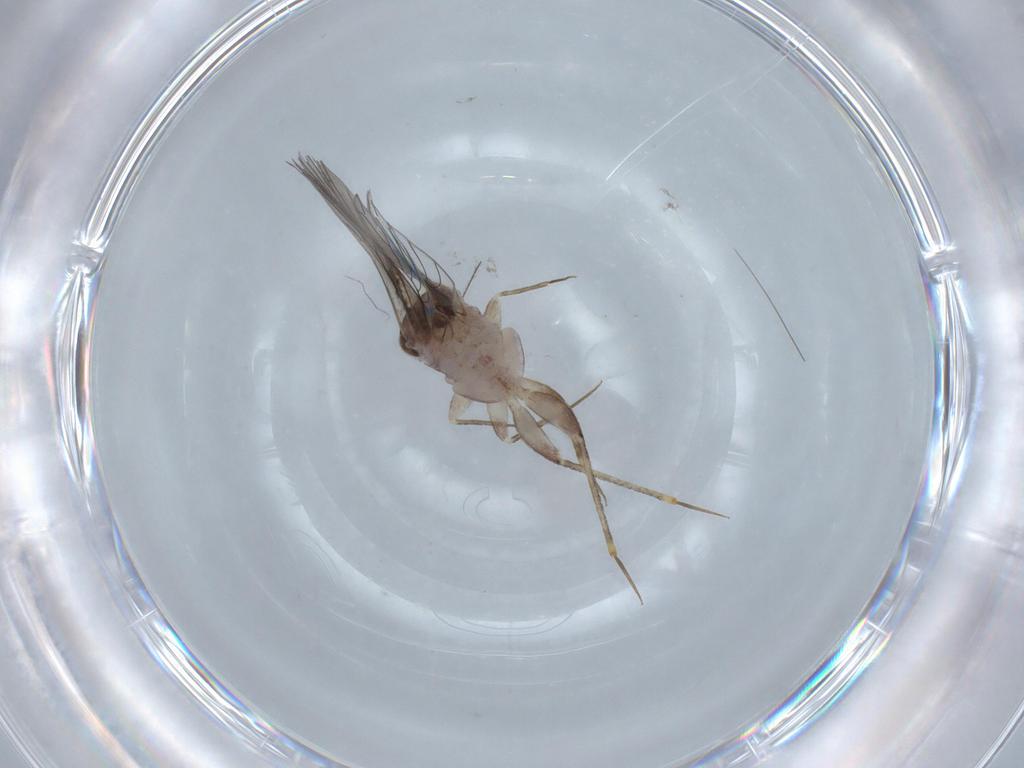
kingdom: Animalia
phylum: Arthropoda
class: Insecta
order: Psocodea
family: Lepidopsocidae
